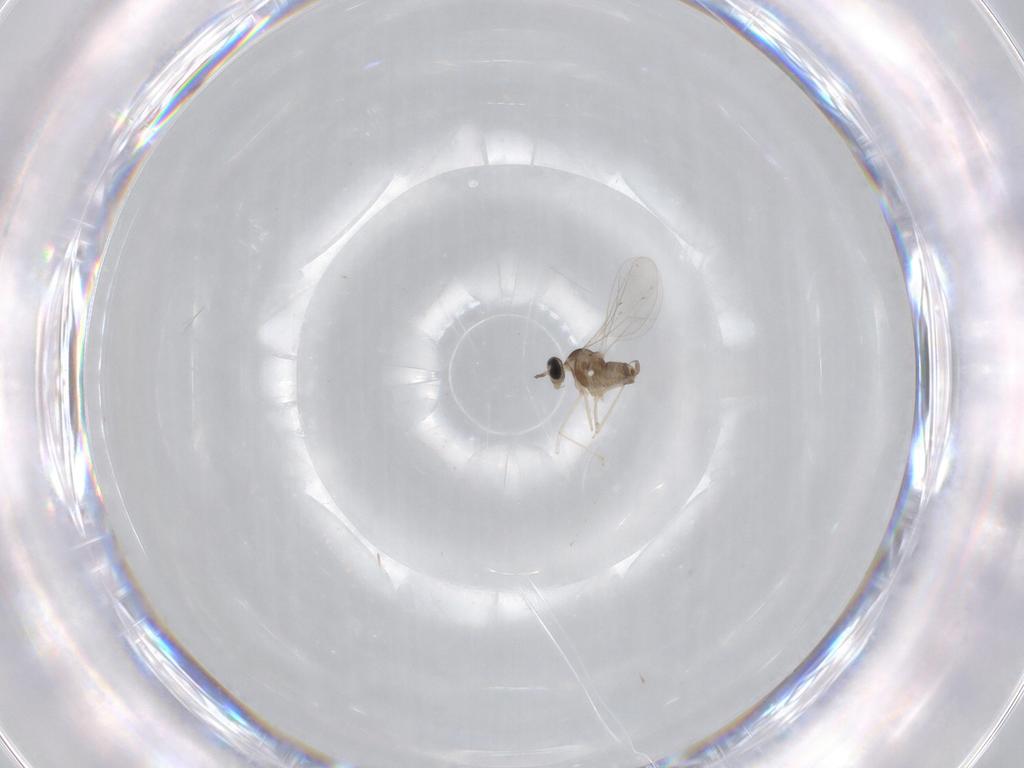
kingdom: Animalia
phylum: Arthropoda
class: Insecta
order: Diptera
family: Cecidomyiidae
